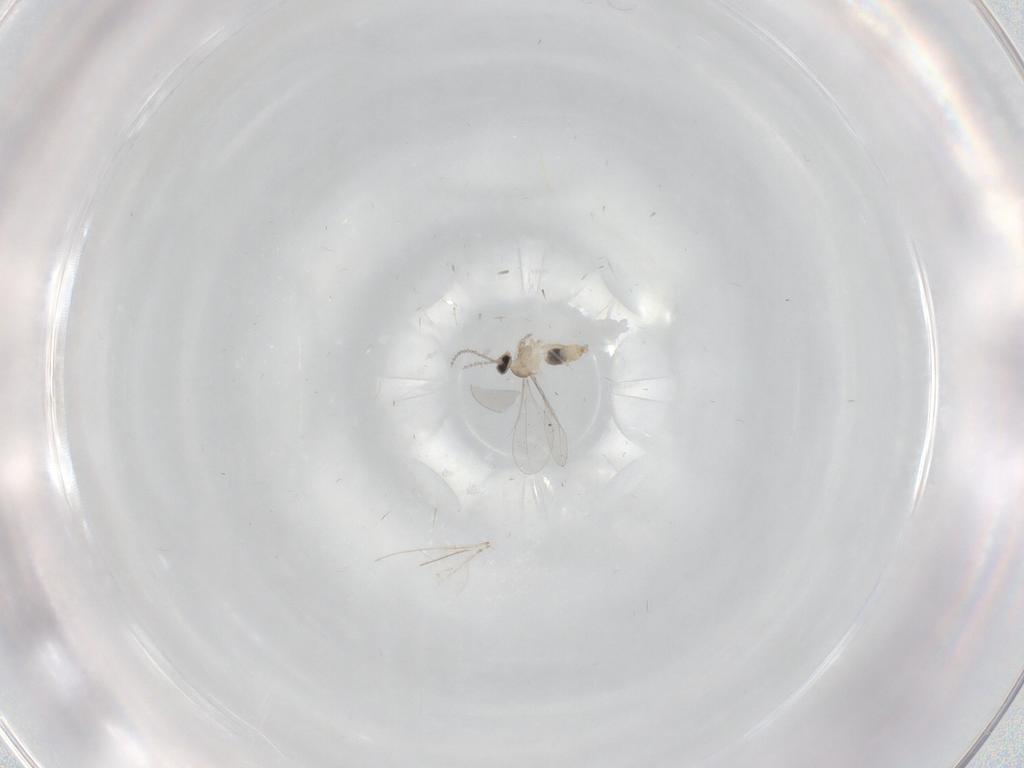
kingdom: Animalia
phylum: Arthropoda
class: Insecta
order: Diptera
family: Cecidomyiidae
